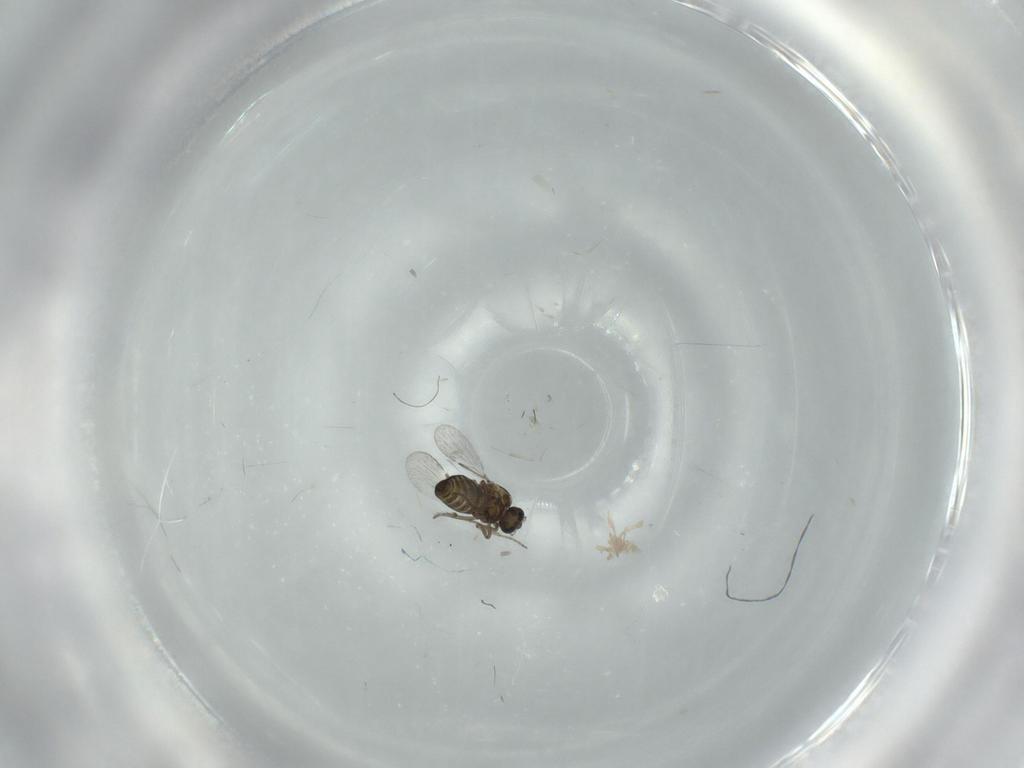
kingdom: Animalia
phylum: Arthropoda
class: Insecta
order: Diptera
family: Ceratopogonidae
